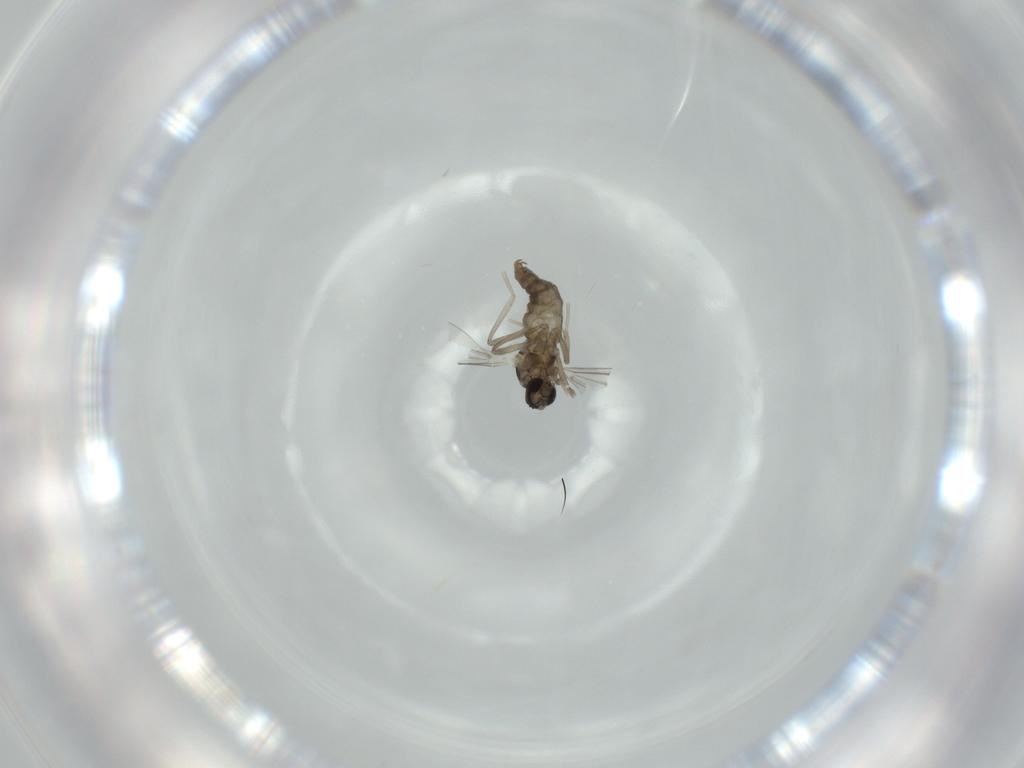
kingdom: Animalia
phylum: Arthropoda
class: Insecta
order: Diptera
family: Cecidomyiidae
